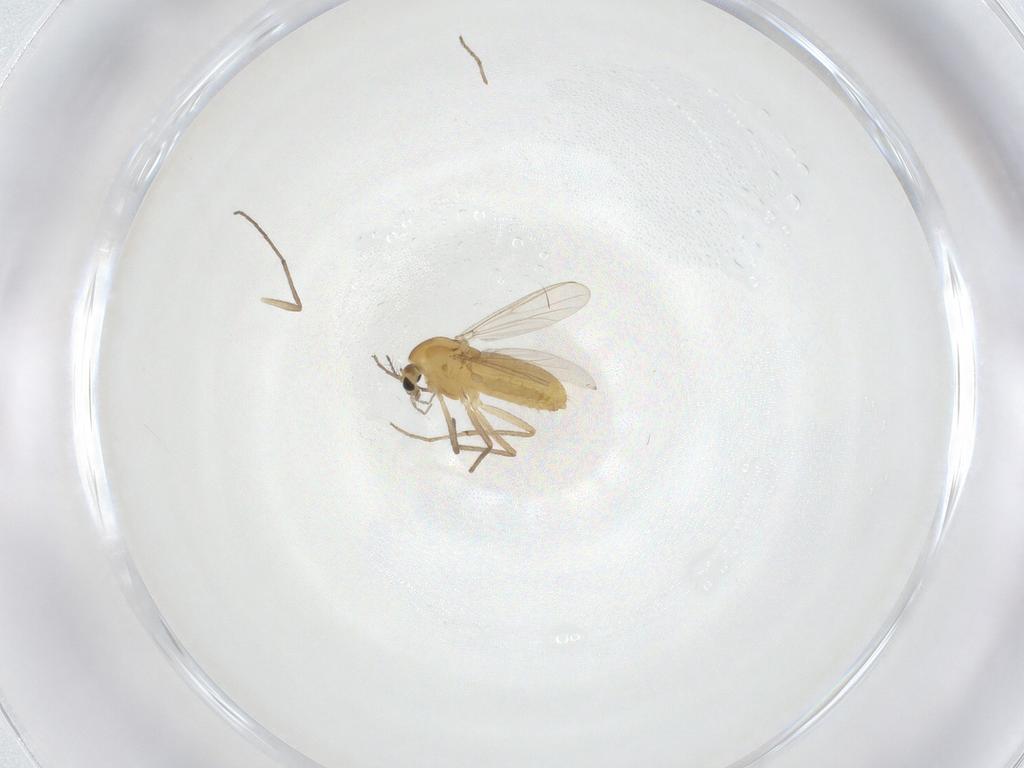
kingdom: Animalia
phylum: Arthropoda
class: Insecta
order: Diptera
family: Chironomidae
